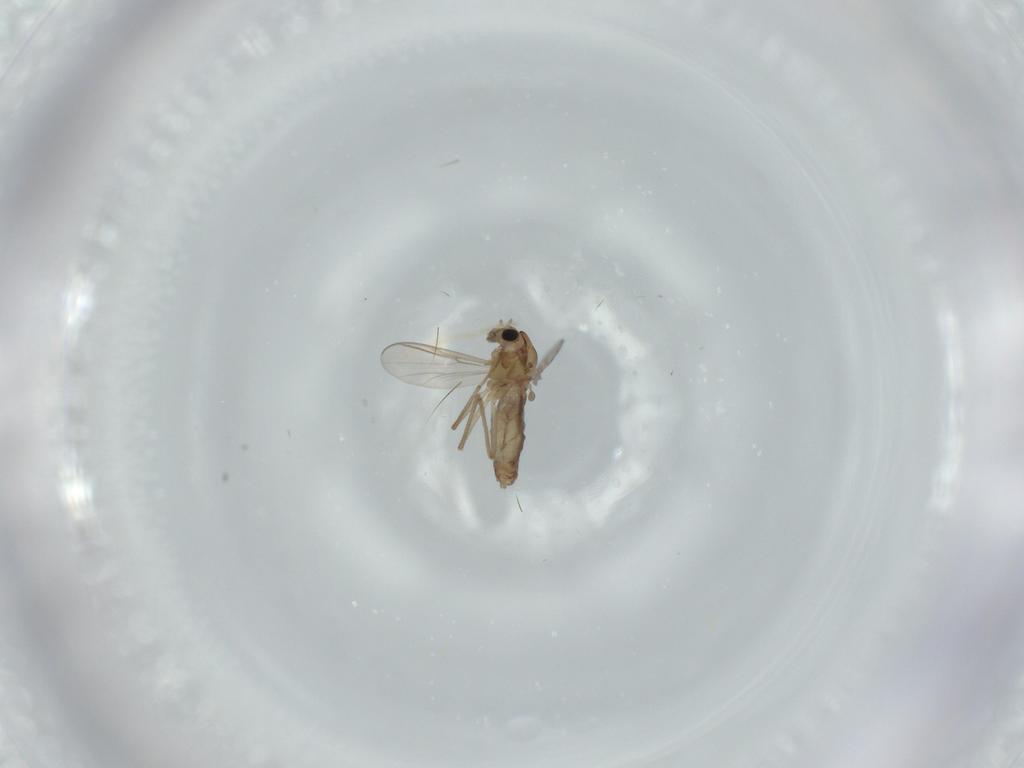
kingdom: Animalia
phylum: Arthropoda
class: Insecta
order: Diptera
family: Chironomidae
